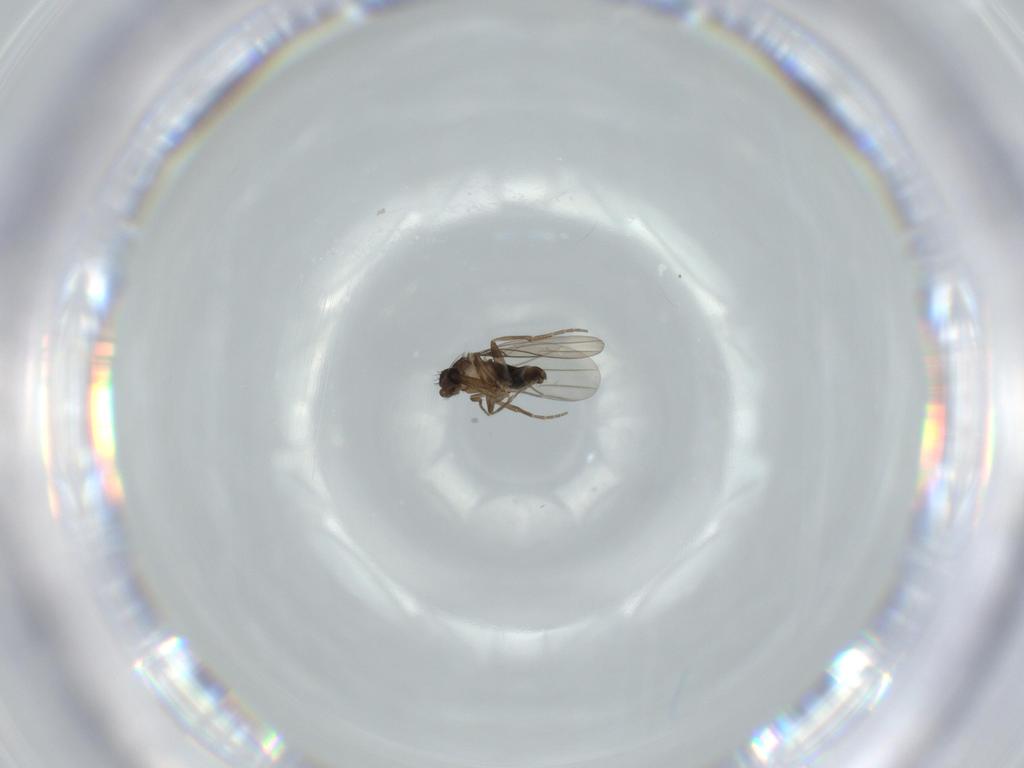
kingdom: Animalia
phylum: Arthropoda
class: Insecta
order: Diptera
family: Phoridae
